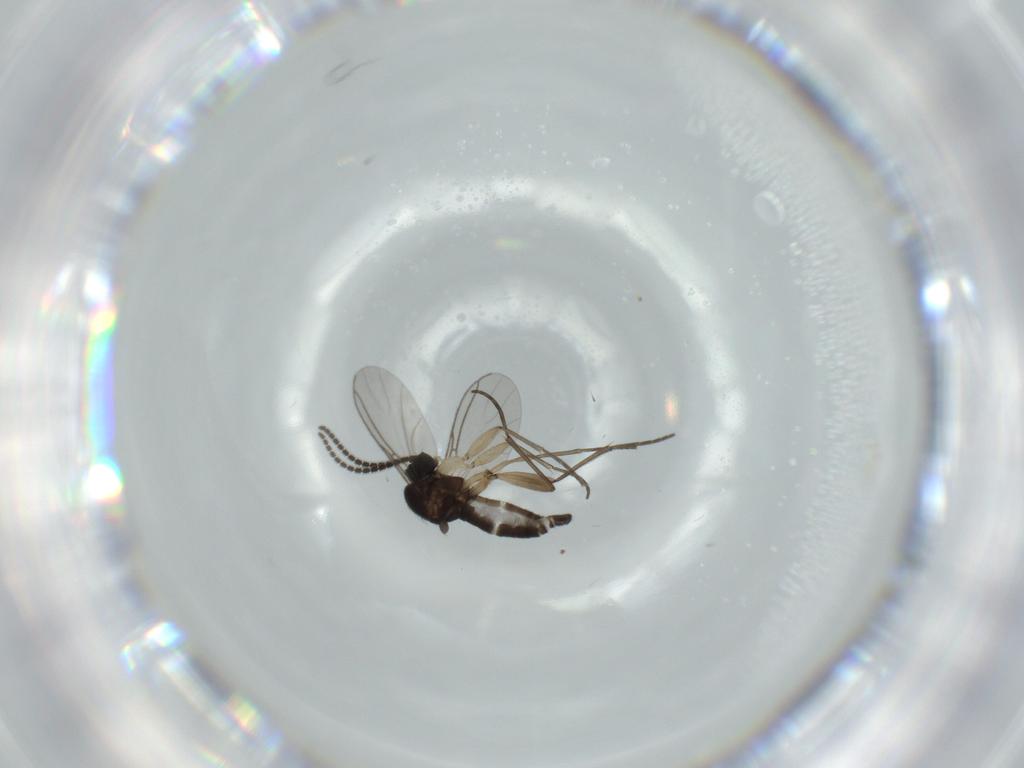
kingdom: Animalia
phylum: Arthropoda
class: Insecta
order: Diptera
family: Sciaridae
